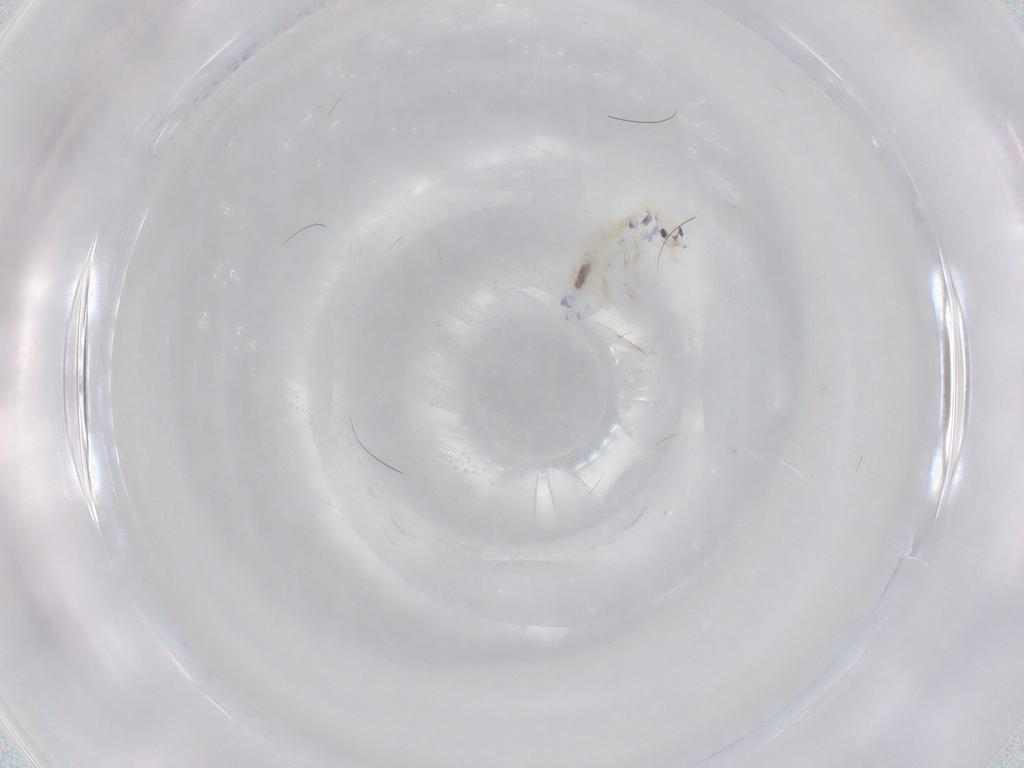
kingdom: Animalia
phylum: Arthropoda
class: Collembola
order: Entomobryomorpha
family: Entomobryidae
